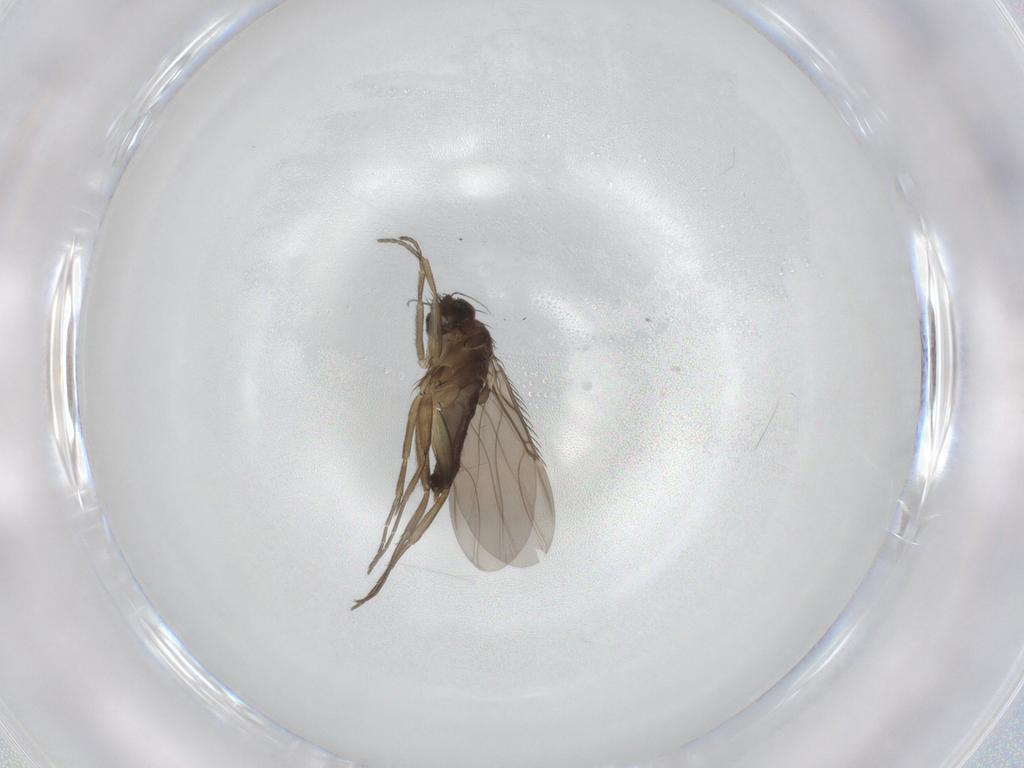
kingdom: Animalia
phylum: Arthropoda
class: Insecta
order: Diptera
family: Phoridae
